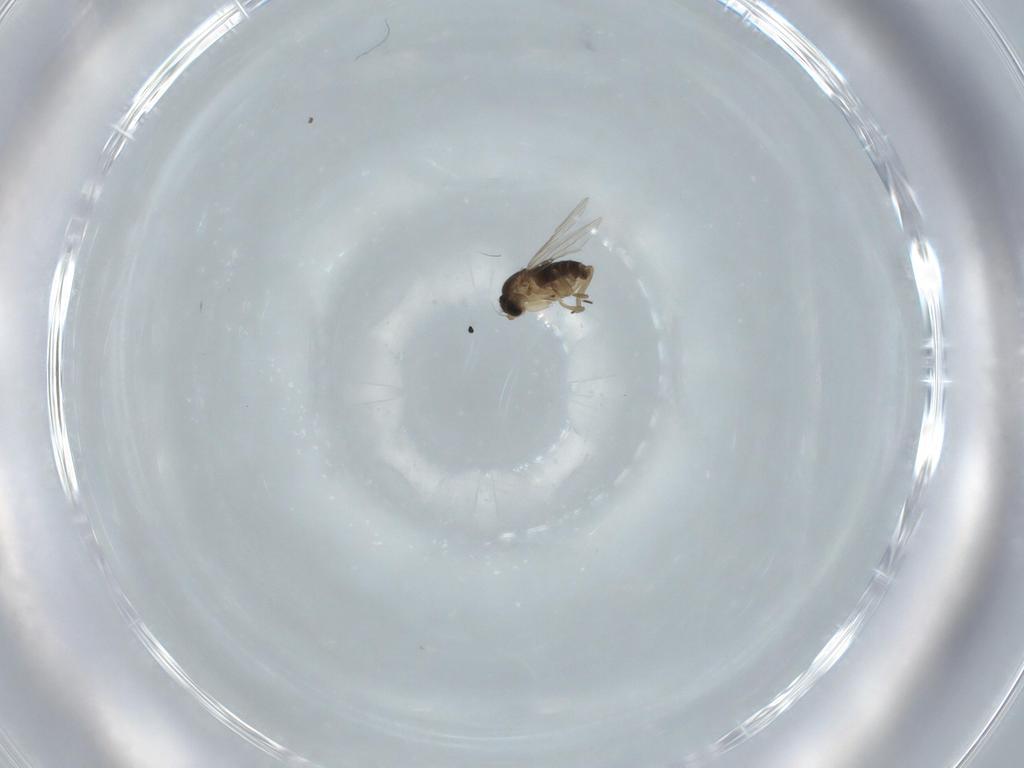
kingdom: Animalia
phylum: Arthropoda
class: Insecta
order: Diptera
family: Phoridae
